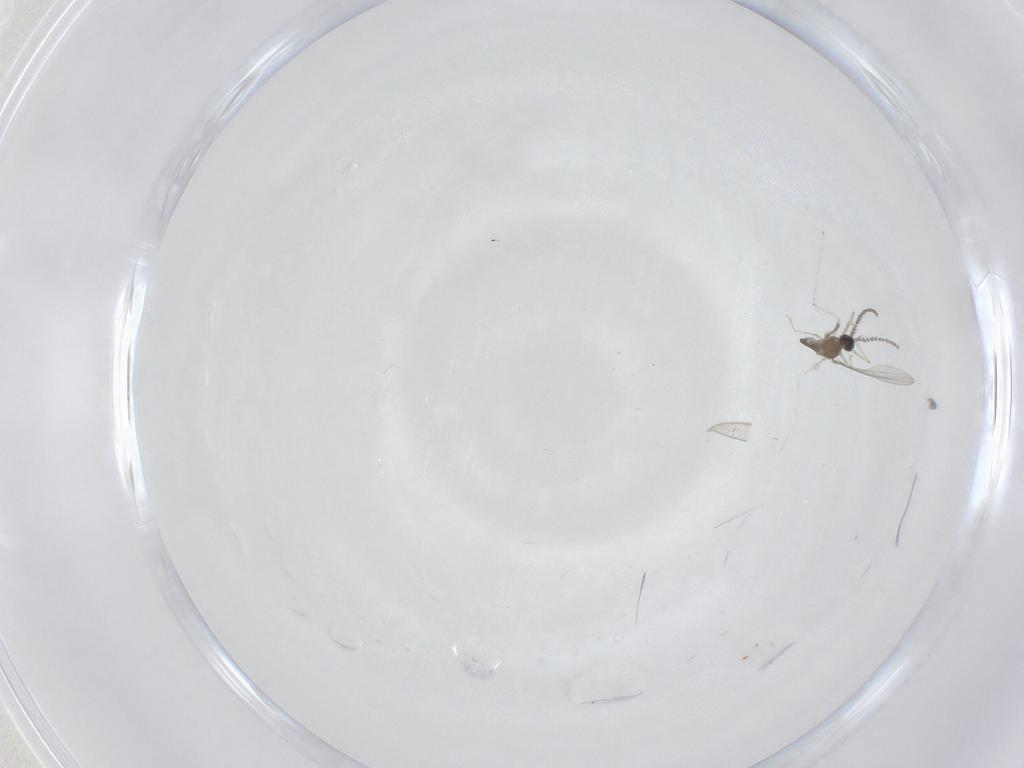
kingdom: Animalia
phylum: Arthropoda
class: Insecta
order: Diptera
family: Cecidomyiidae
